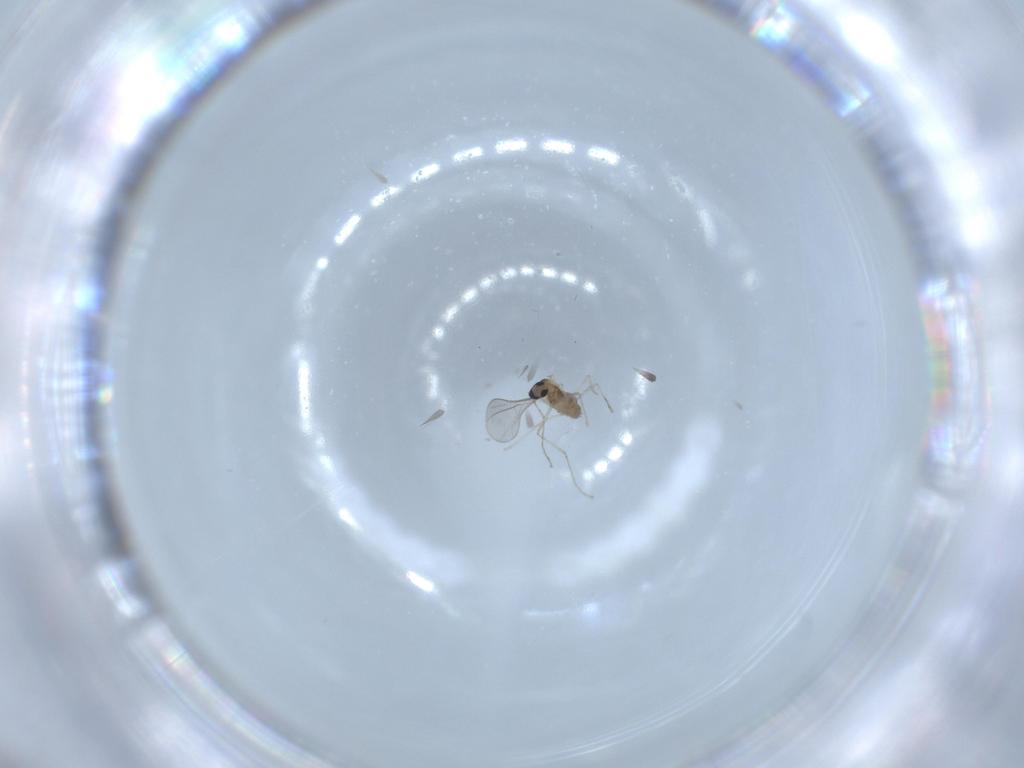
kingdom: Animalia
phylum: Arthropoda
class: Insecta
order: Diptera
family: Cecidomyiidae
